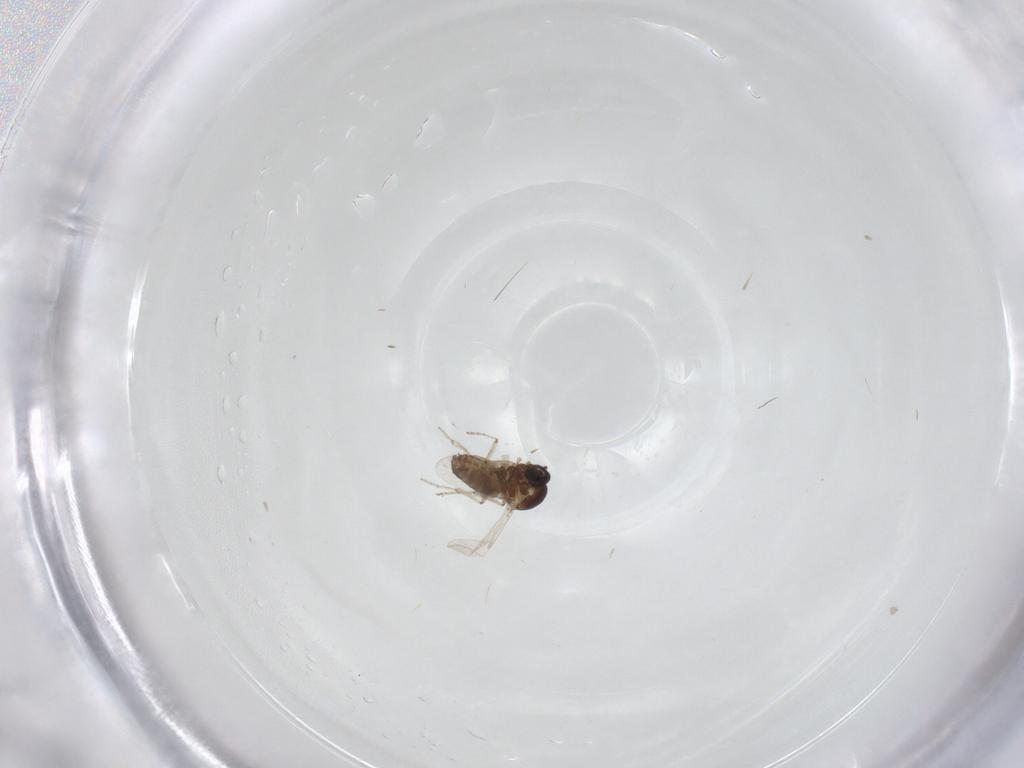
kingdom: Animalia
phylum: Arthropoda
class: Insecta
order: Diptera
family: Ceratopogonidae
